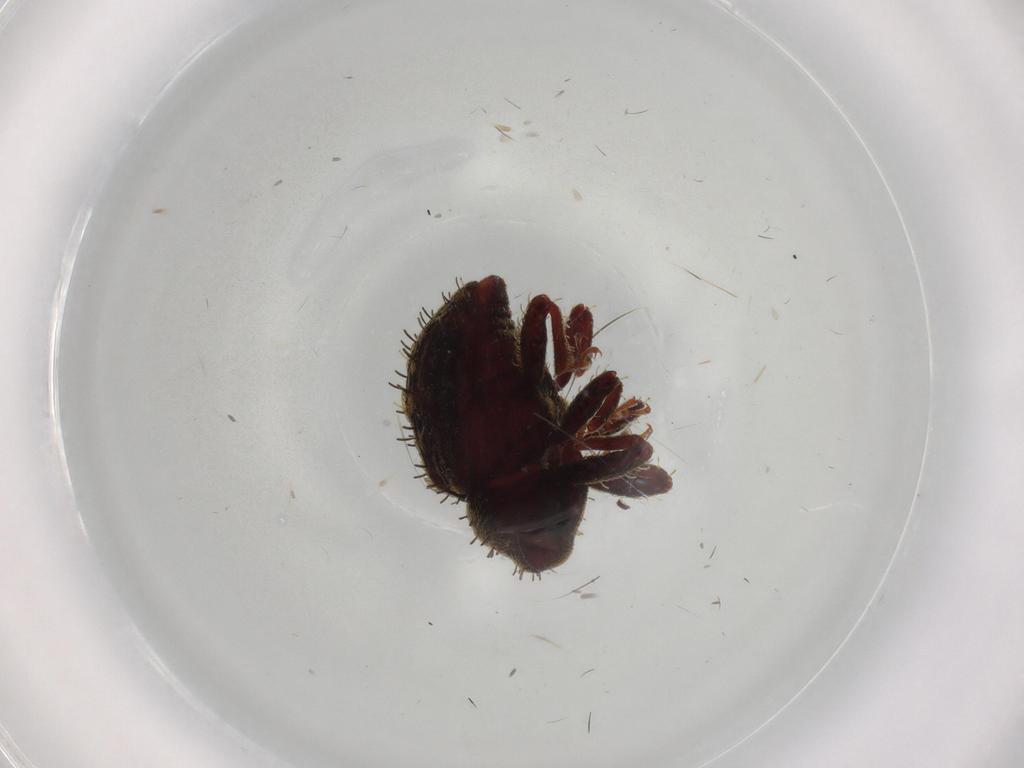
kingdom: Animalia
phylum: Arthropoda
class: Insecta
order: Coleoptera
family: Curculionidae
